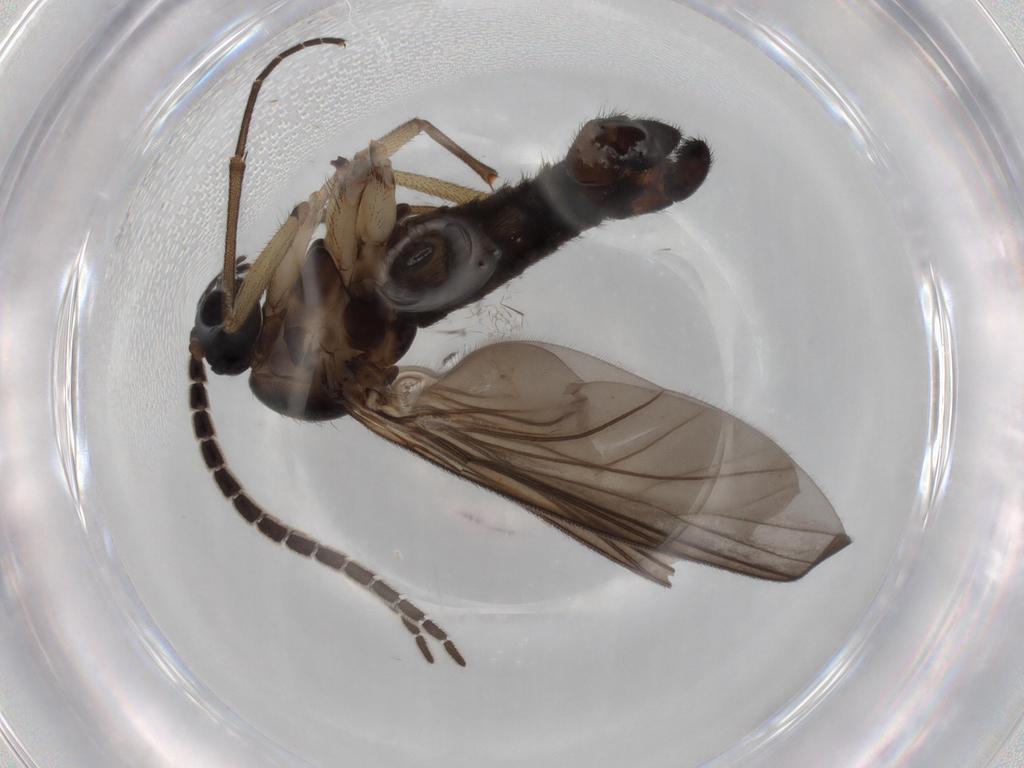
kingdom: Animalia
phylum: Arthropoda
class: Insecta
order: Diptera
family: Sciaridae
